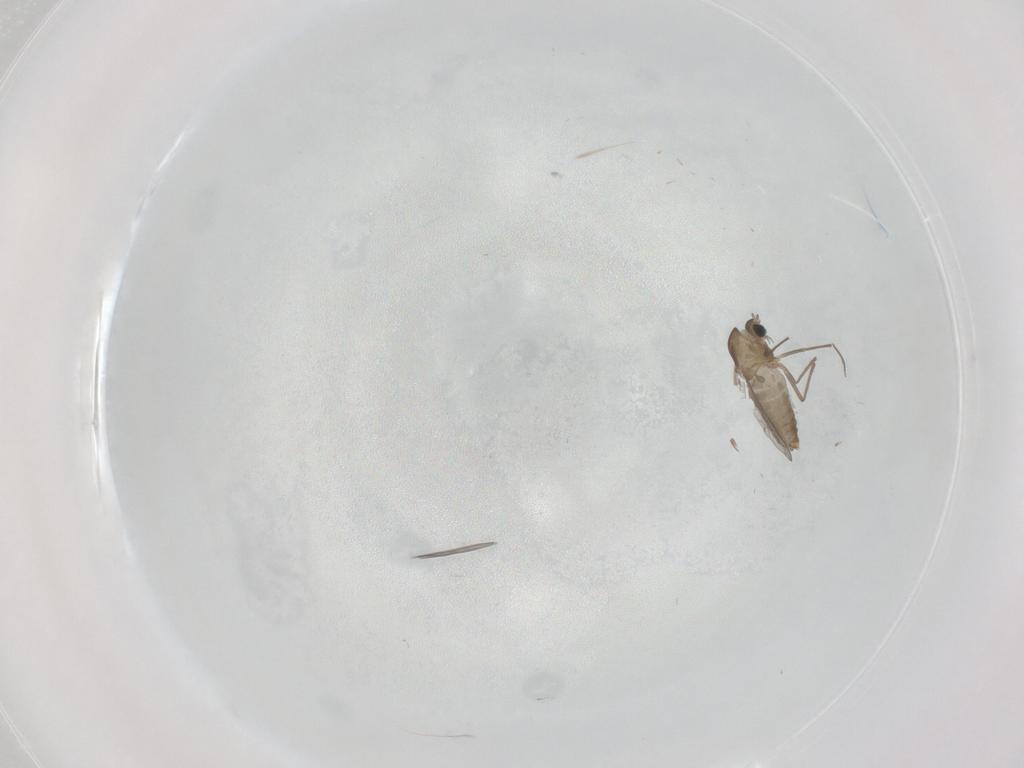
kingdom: Animalia
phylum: Arthropoda
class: Insecta
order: Diptera
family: Chironomidae
